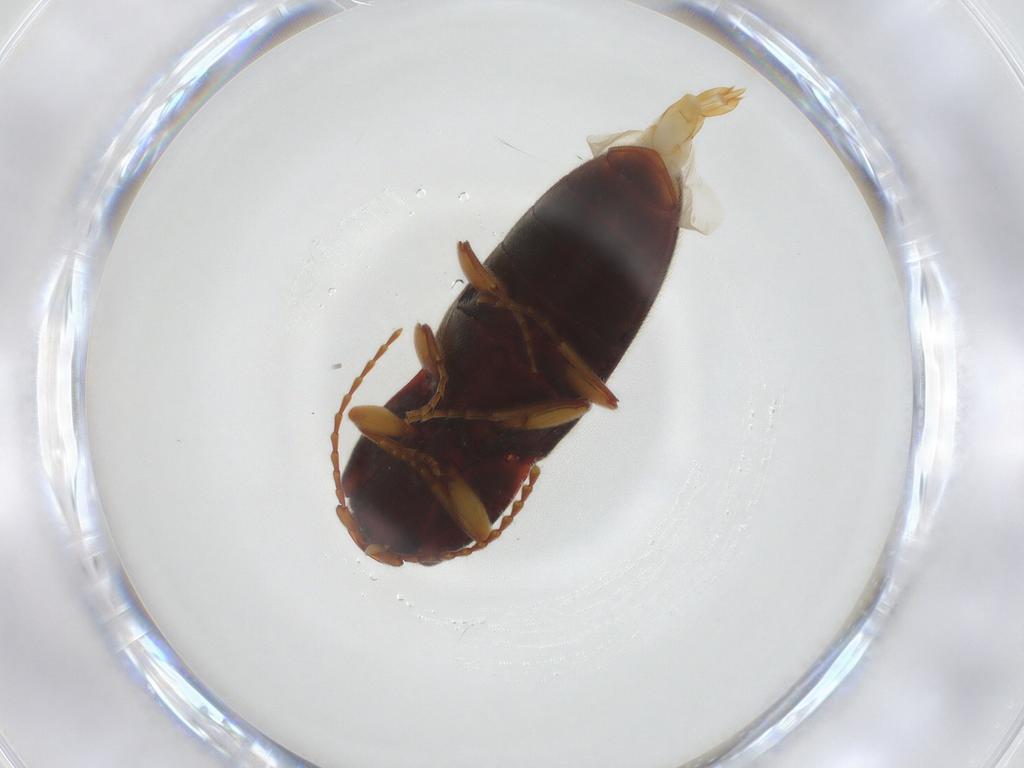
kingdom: Animalia
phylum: Arthropoda
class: Insecta
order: Coleoptera
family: Elateridae
